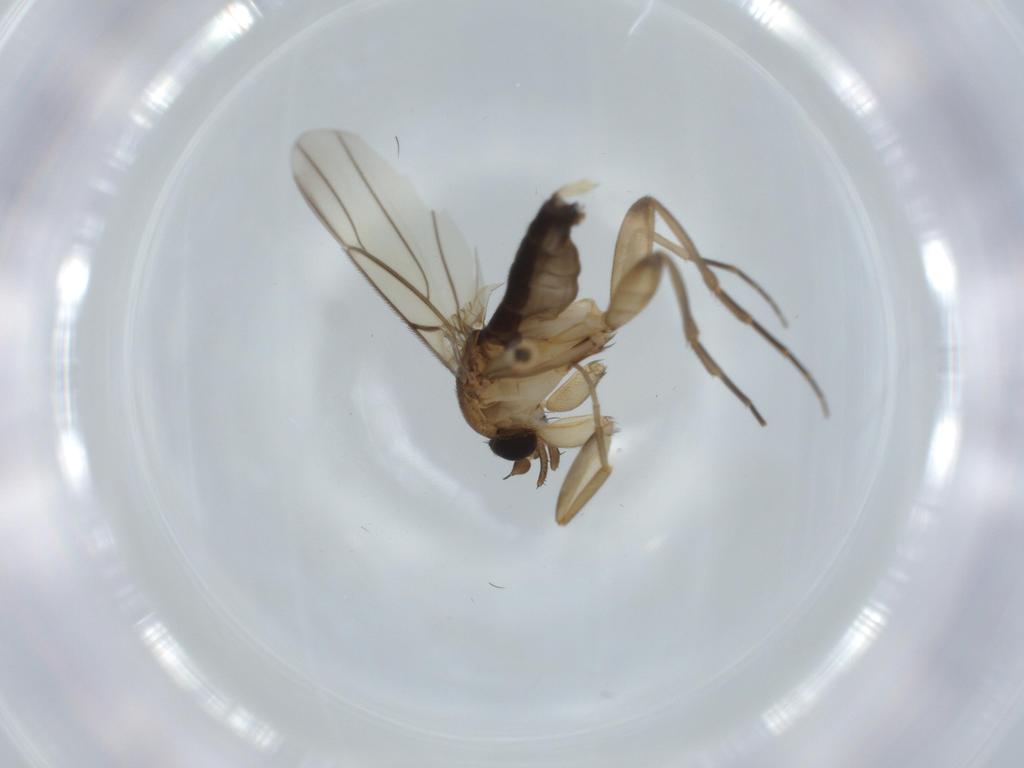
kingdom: Animalia
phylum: Arthropoda
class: Insecta
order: Diptera
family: Phoridae
